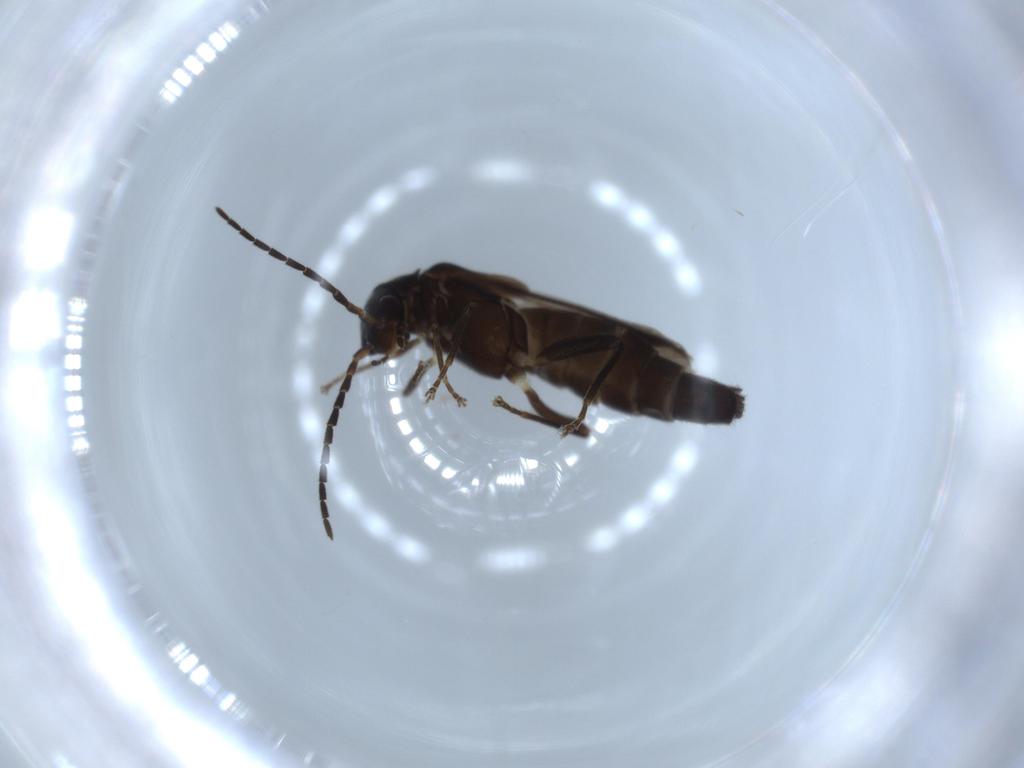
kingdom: Animalia
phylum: Arthropoda
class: Insecta
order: Coleoptera
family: Cantharidae
